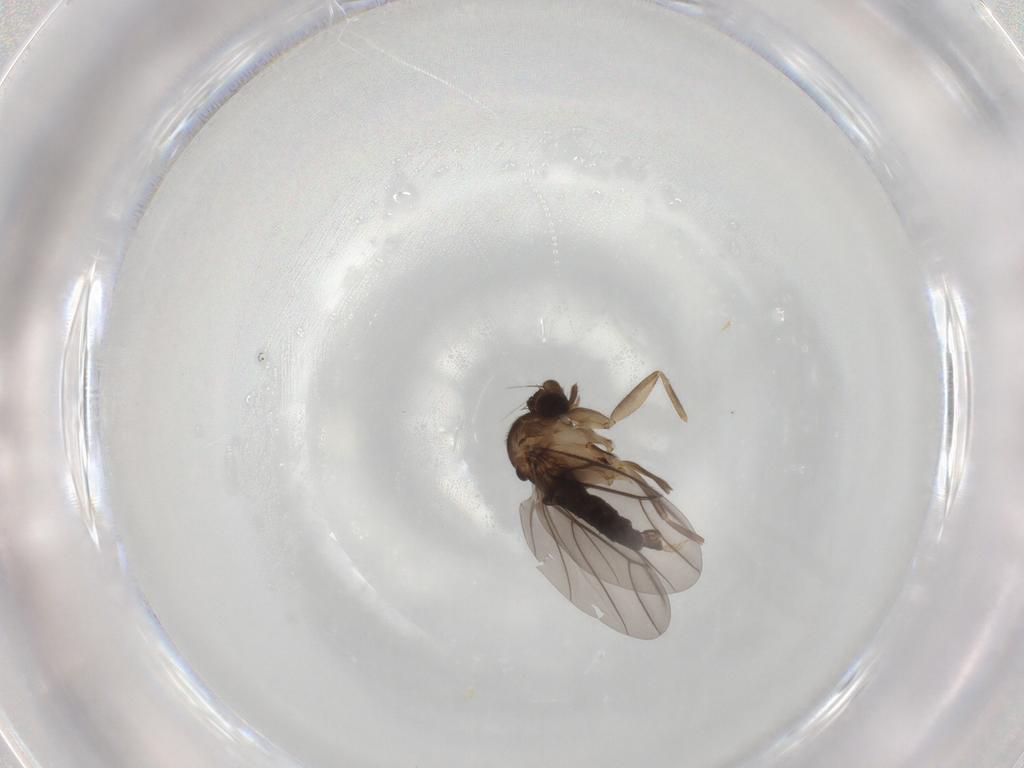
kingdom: Animalia
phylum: Arthropoda
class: Insecta
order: Diptera
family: Phoridae
